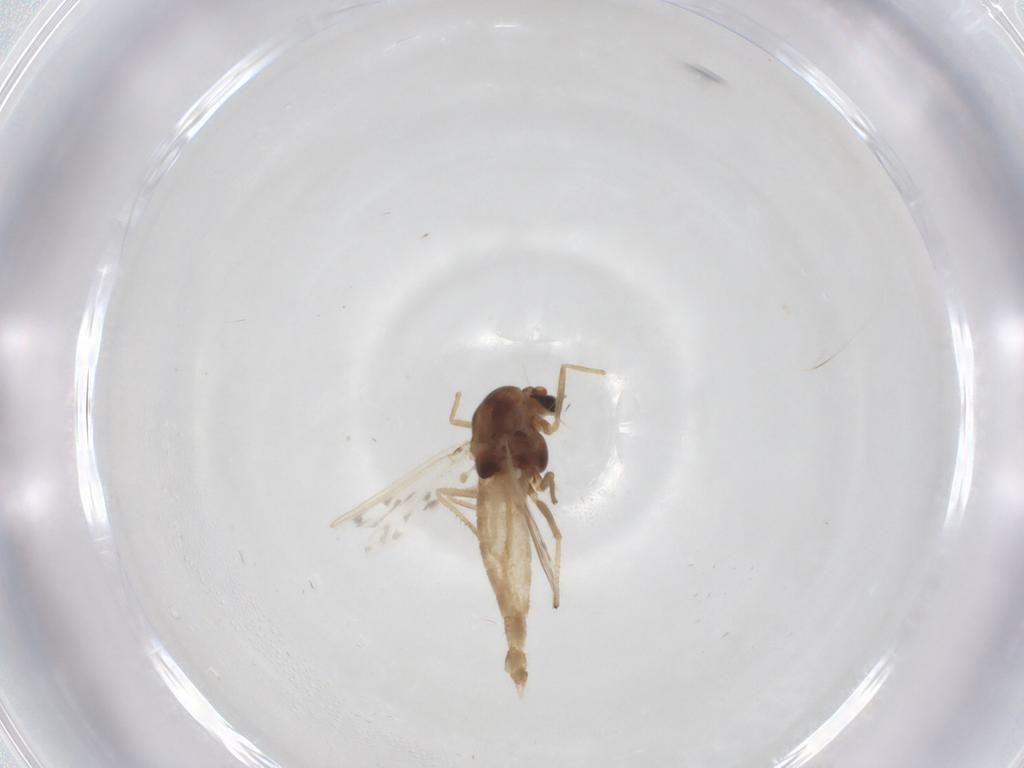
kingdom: Animalia
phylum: Arthropoda
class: Insecta
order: Diptera
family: Chironomidae
